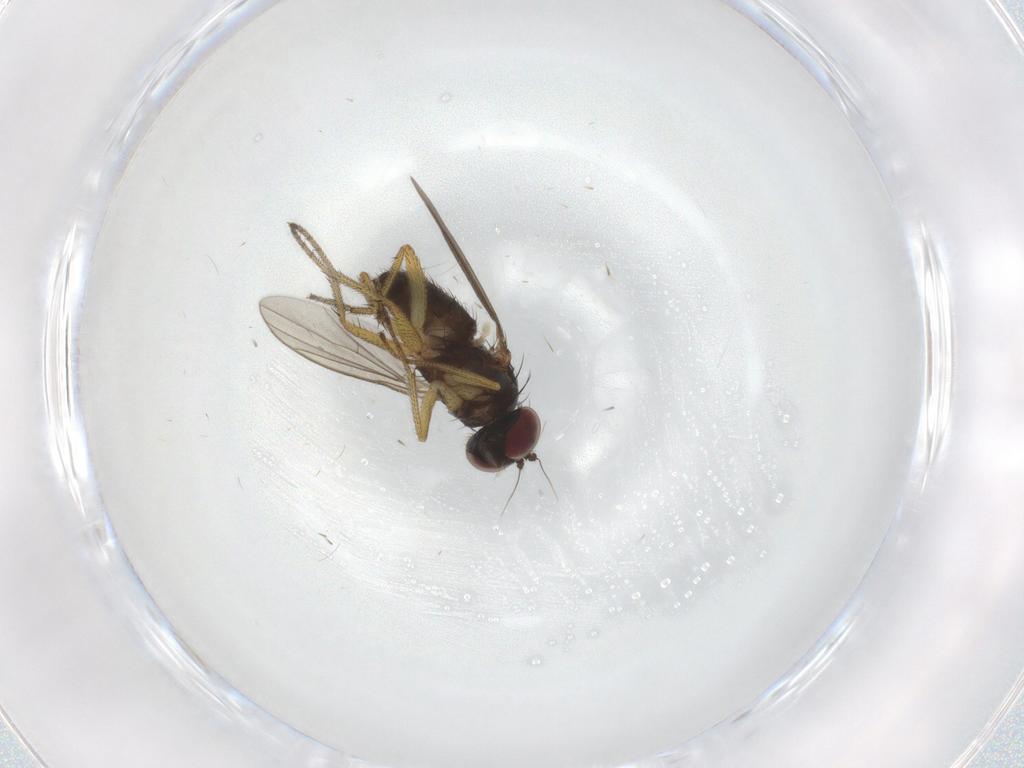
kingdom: Animalia
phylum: Arthropoda
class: Insecta
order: Diptera
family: Dolichopodidae
